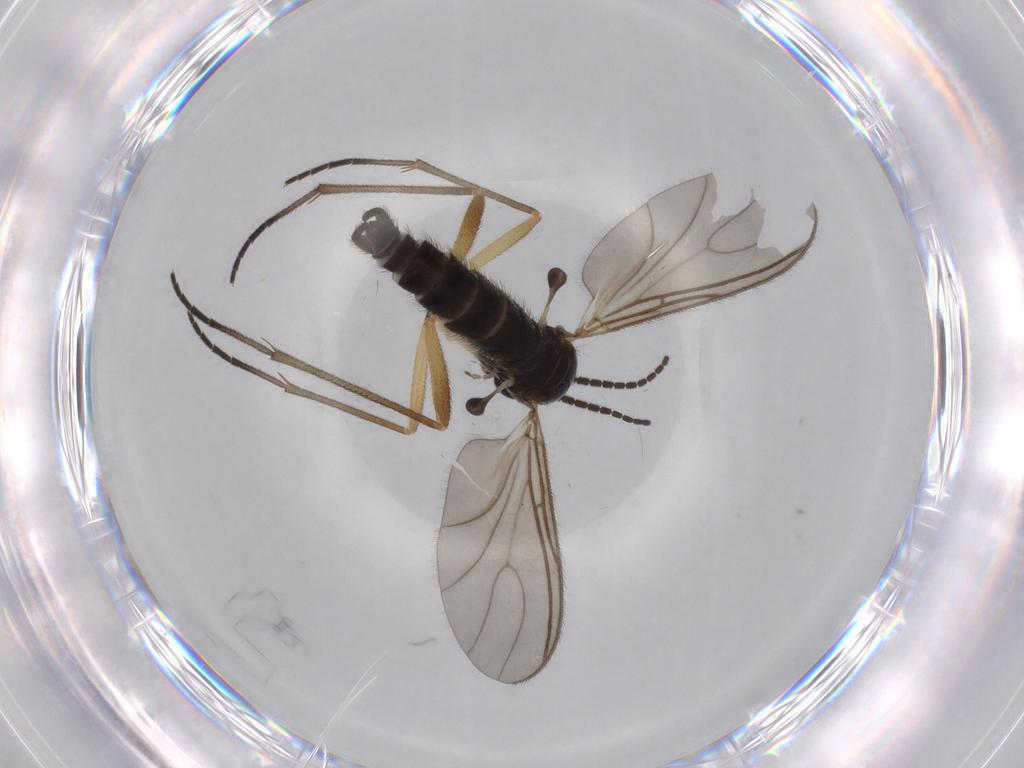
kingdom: Animalia
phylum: Arthropoda
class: Insecta
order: Diptera
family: Sciaridae
